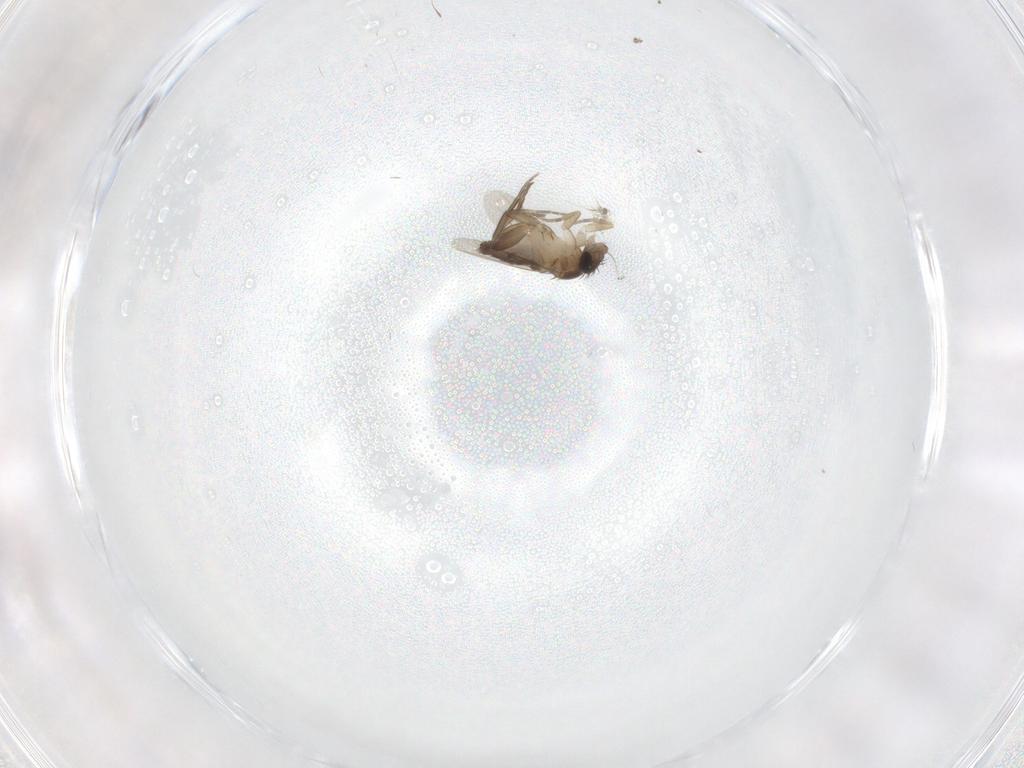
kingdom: Animalia
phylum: Arthropoda
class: Insecta
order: Diptera
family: Phoridae
